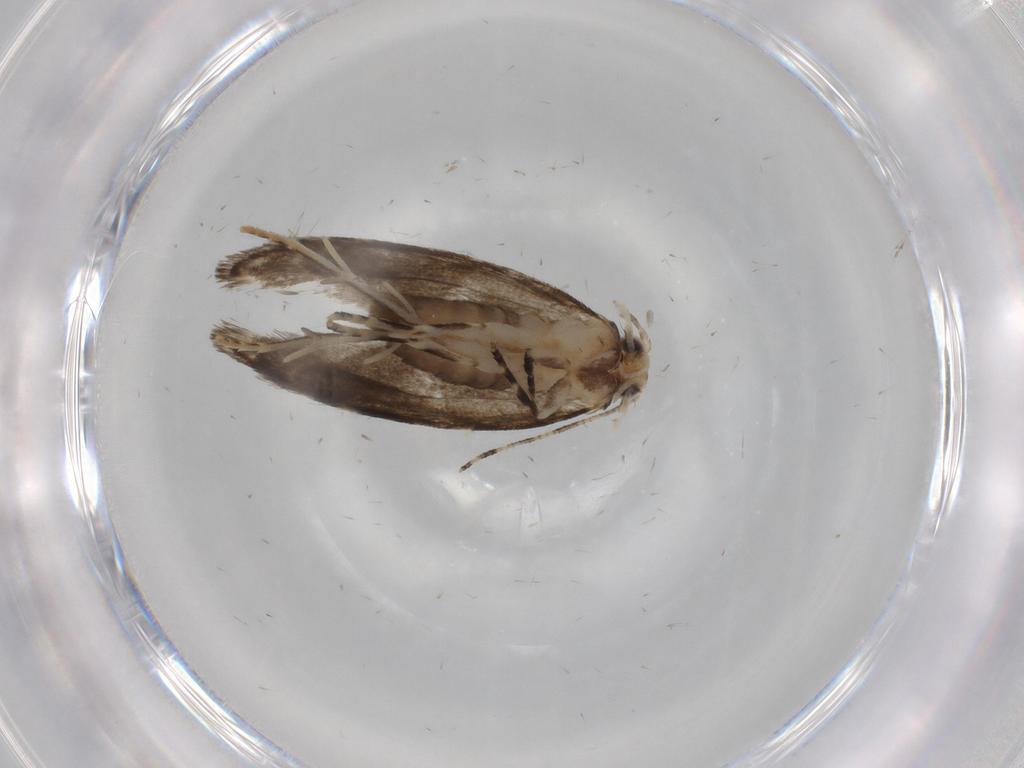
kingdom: Animalia
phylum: Arthropoda
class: Insecta
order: Lepidoptera
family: Tineidae
